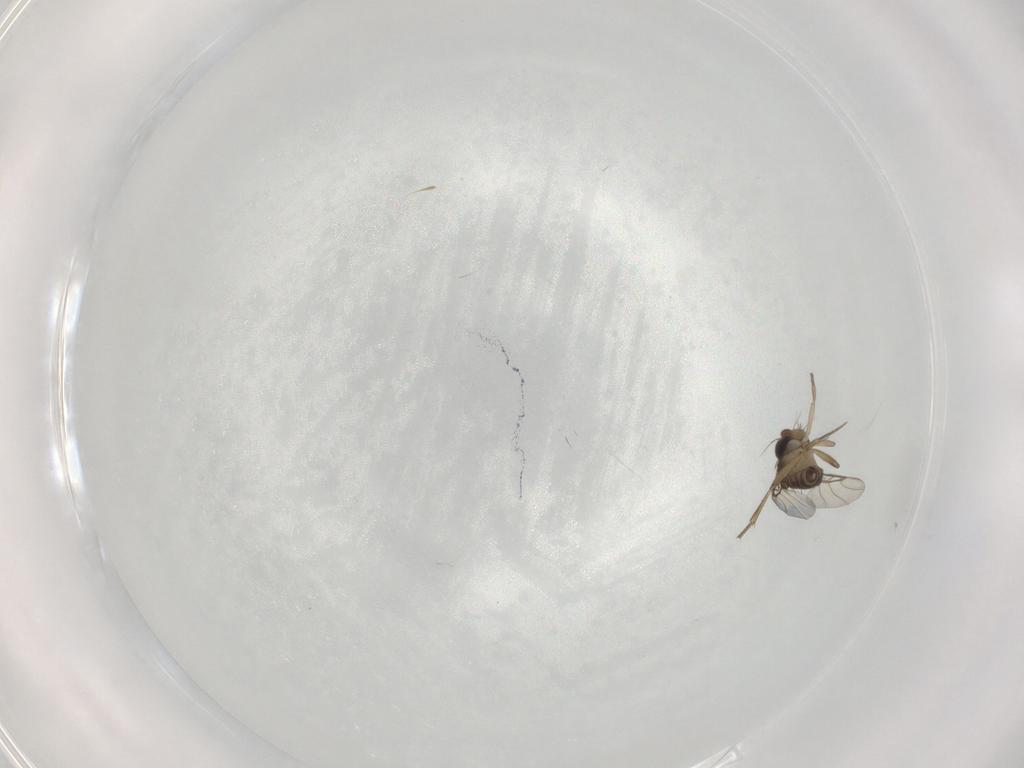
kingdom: Animalia
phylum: Arthropoda
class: Insecta
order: Diptera
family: Phoridae
